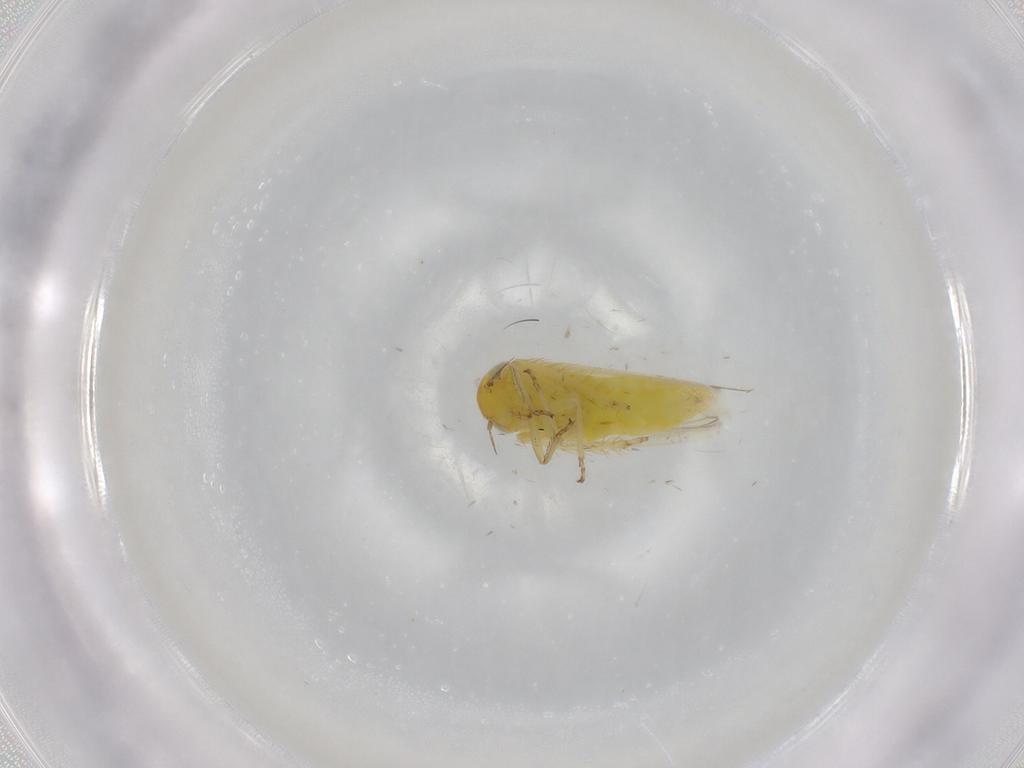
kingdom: Animalia
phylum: Arthropoda
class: Insecta
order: Hemiptera
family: Cicadellidae
